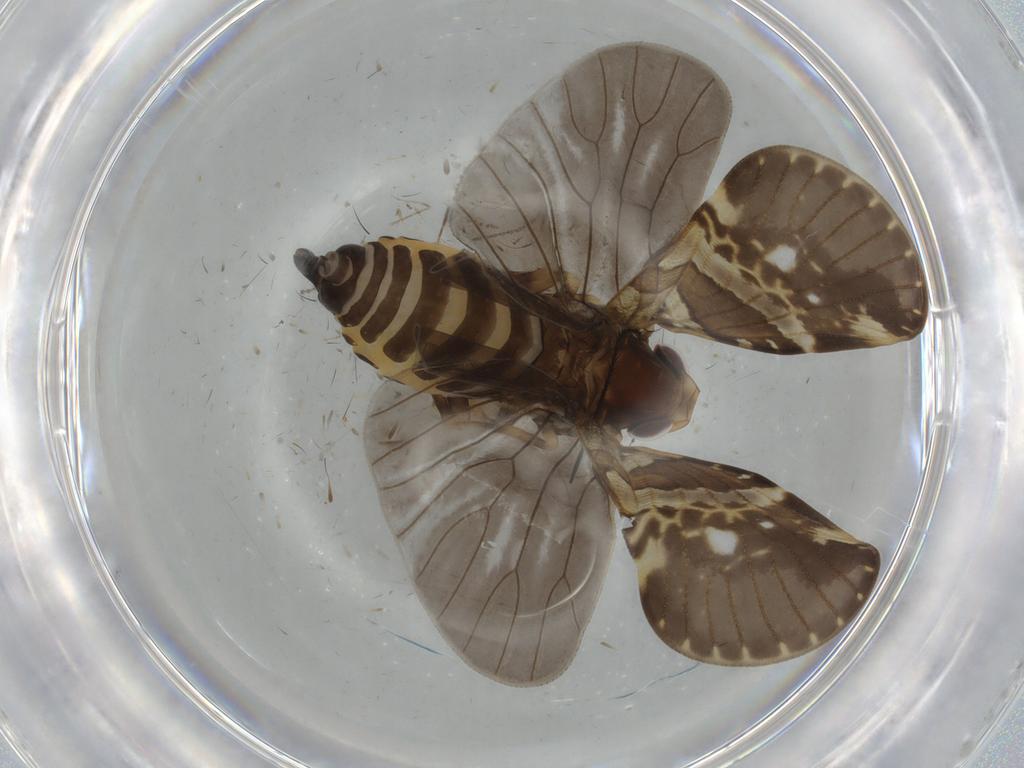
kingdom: Animalia
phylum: Arthropoda
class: Insecta
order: Hemiptera
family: Cixiidae
